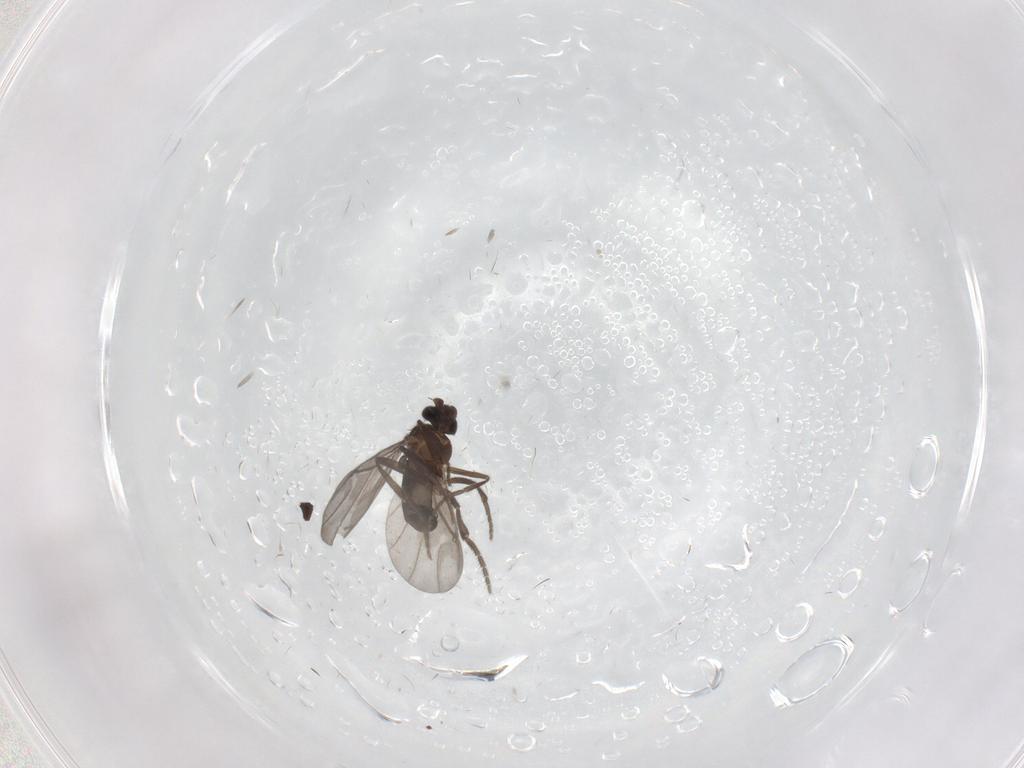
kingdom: Animalia
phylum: Arthropoda
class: Insecta
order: Diptera
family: Phoridae
